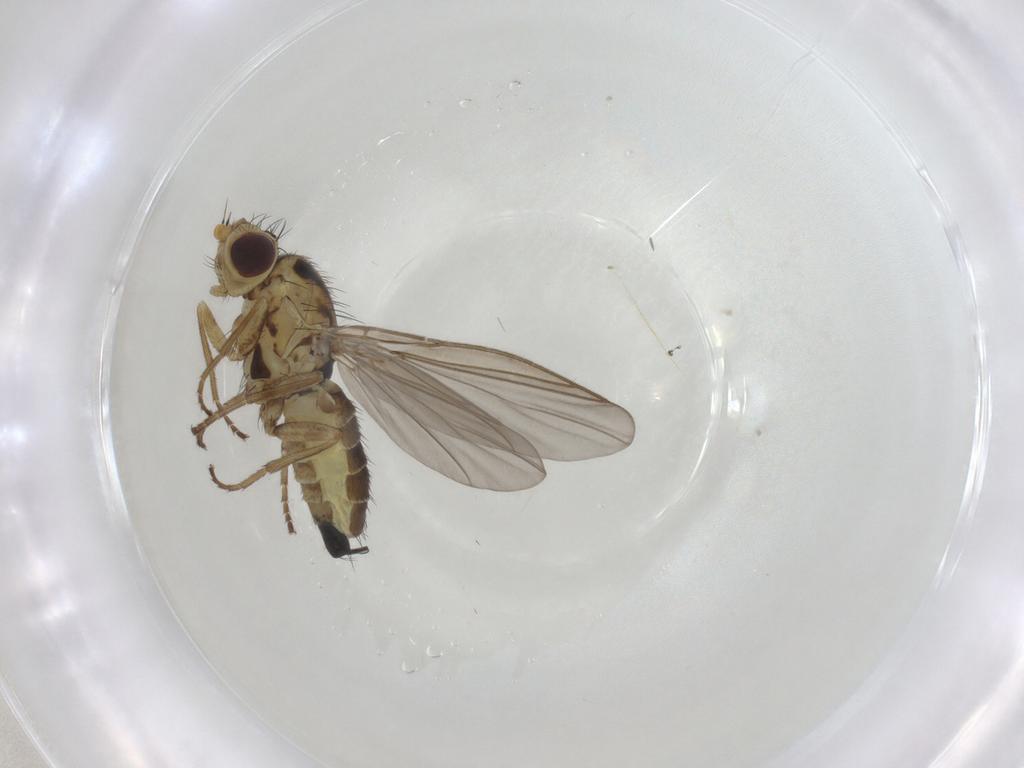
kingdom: Animalia
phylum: Arthropoda
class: Insecta
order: Diptera
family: Agromyzidae
